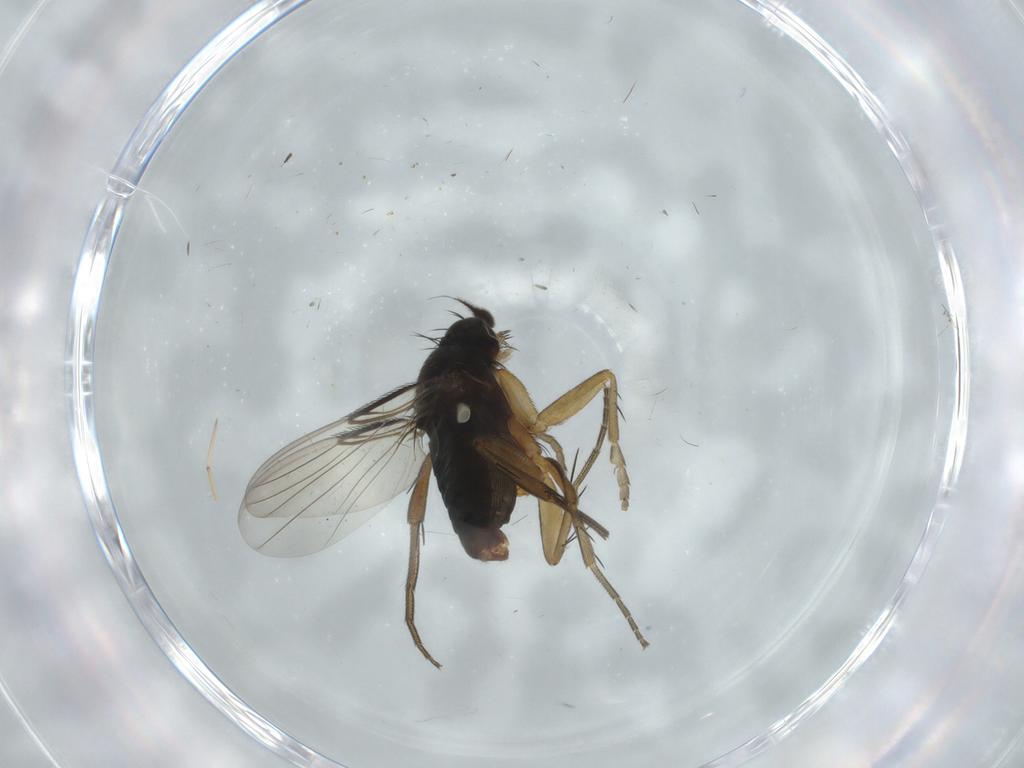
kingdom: Animalia
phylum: Arthropoda
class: Insecta
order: Diptera
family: Phoridae
